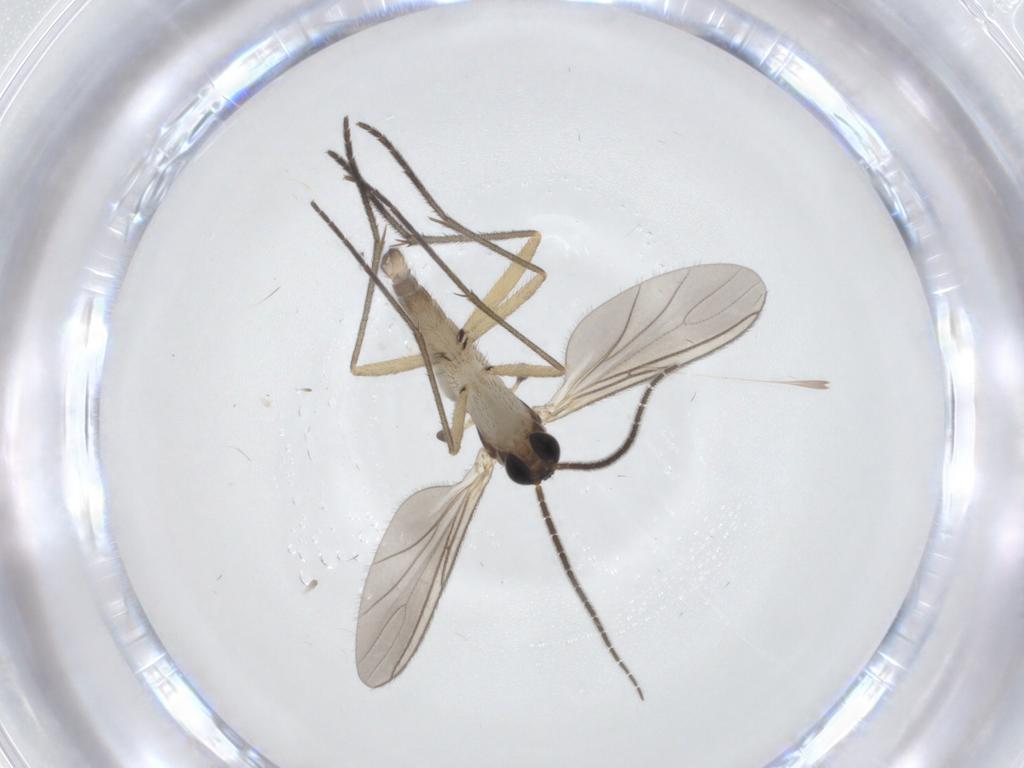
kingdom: Animalia
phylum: Arthropoda
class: Insecta
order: Diptera
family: Sciaridae
